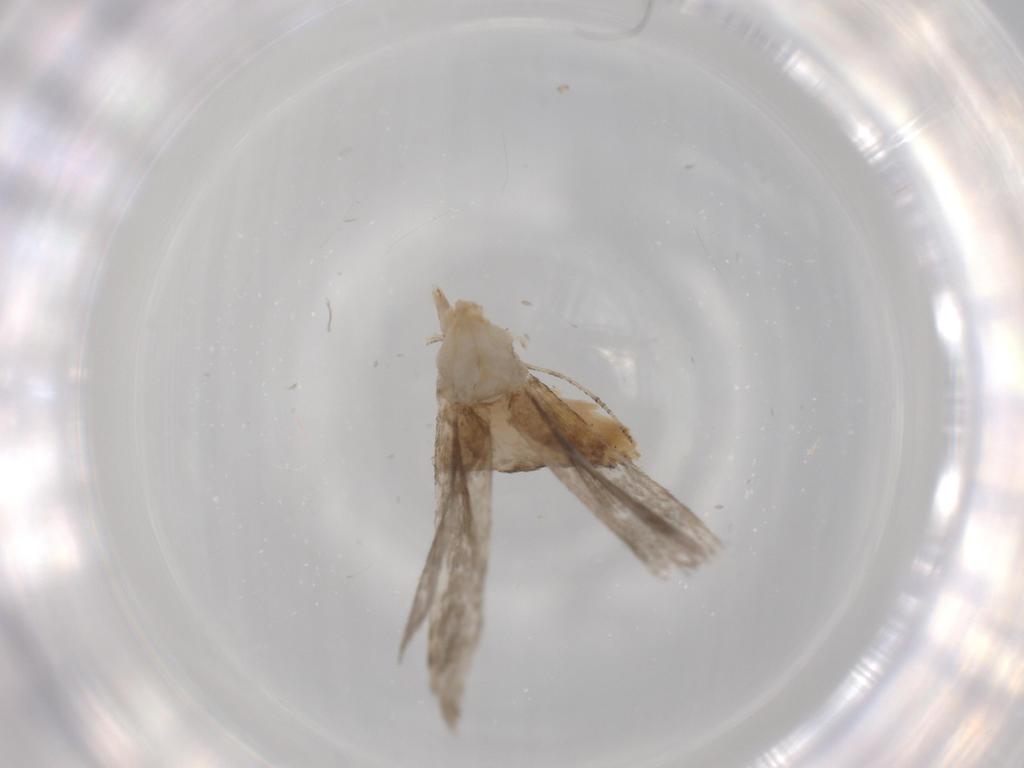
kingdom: Animalia
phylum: Arthropoda
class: Insecta
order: Lepidoptera
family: Tineidae
